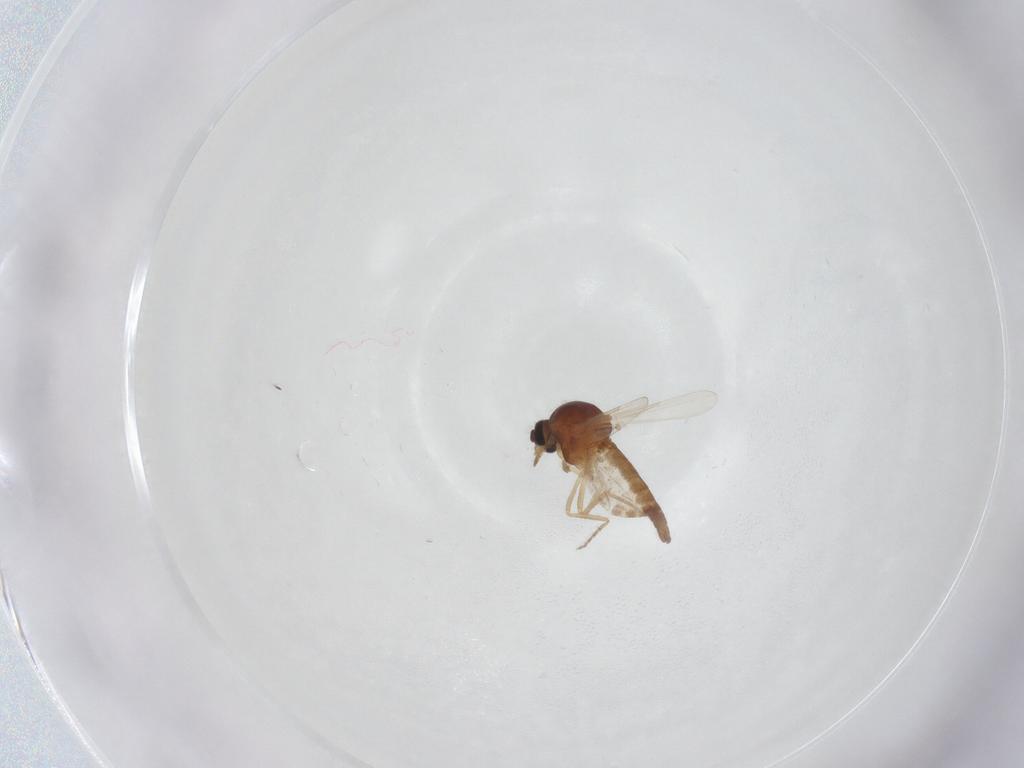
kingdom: Animalia
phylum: Arthropoda
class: Insecta
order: Diptera
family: Ceratopogonidae
